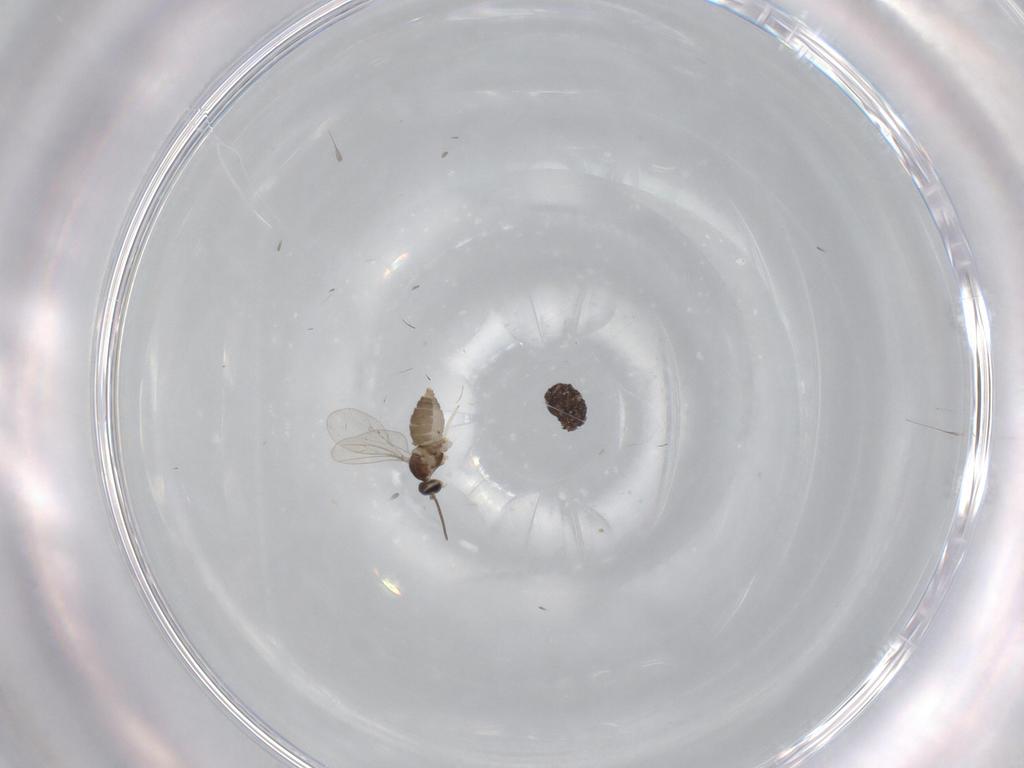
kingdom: Animalia
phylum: Arthropoda
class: Insecta
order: Diptera
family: Cecidomyiidae
